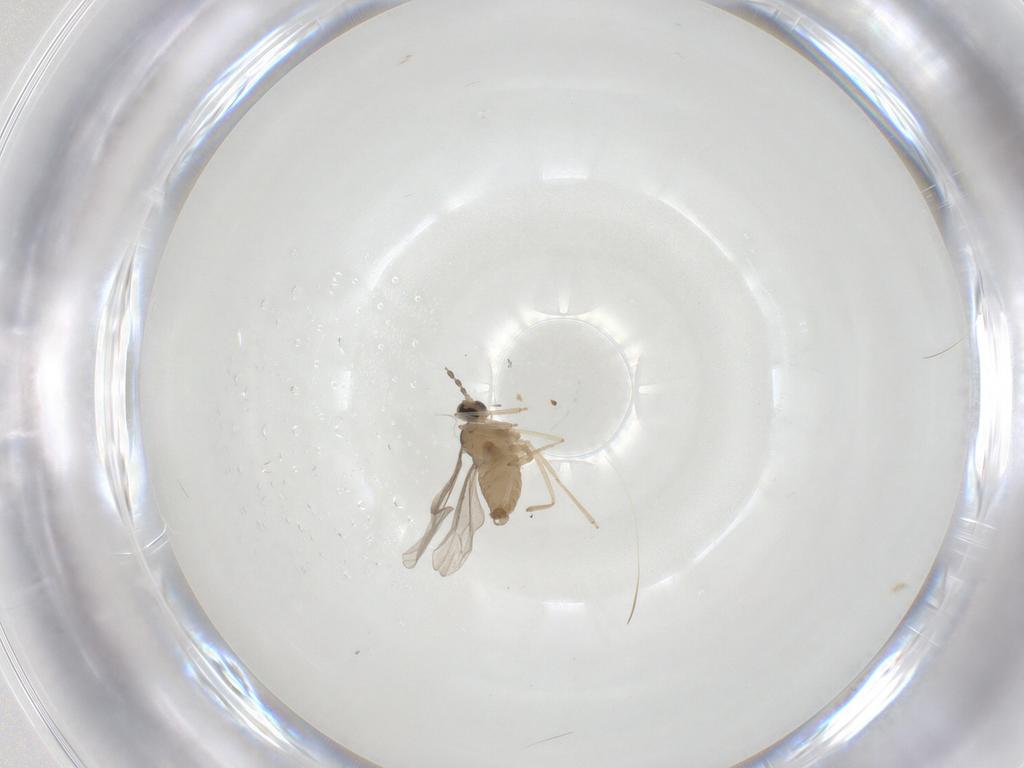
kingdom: Animalia
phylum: Arthropoda
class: Insecta
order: Diptera
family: Cecidomyiidae
